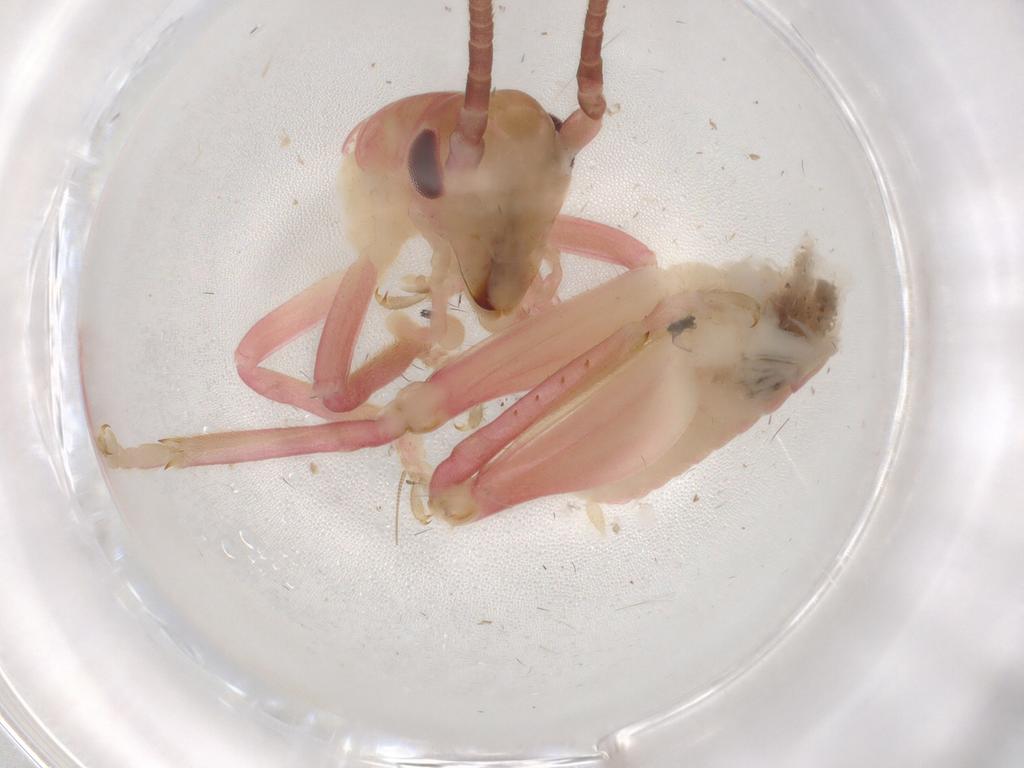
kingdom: Animalia
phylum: Arthropoda
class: Insecta
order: Orthoptera
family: Gryllacrididae
